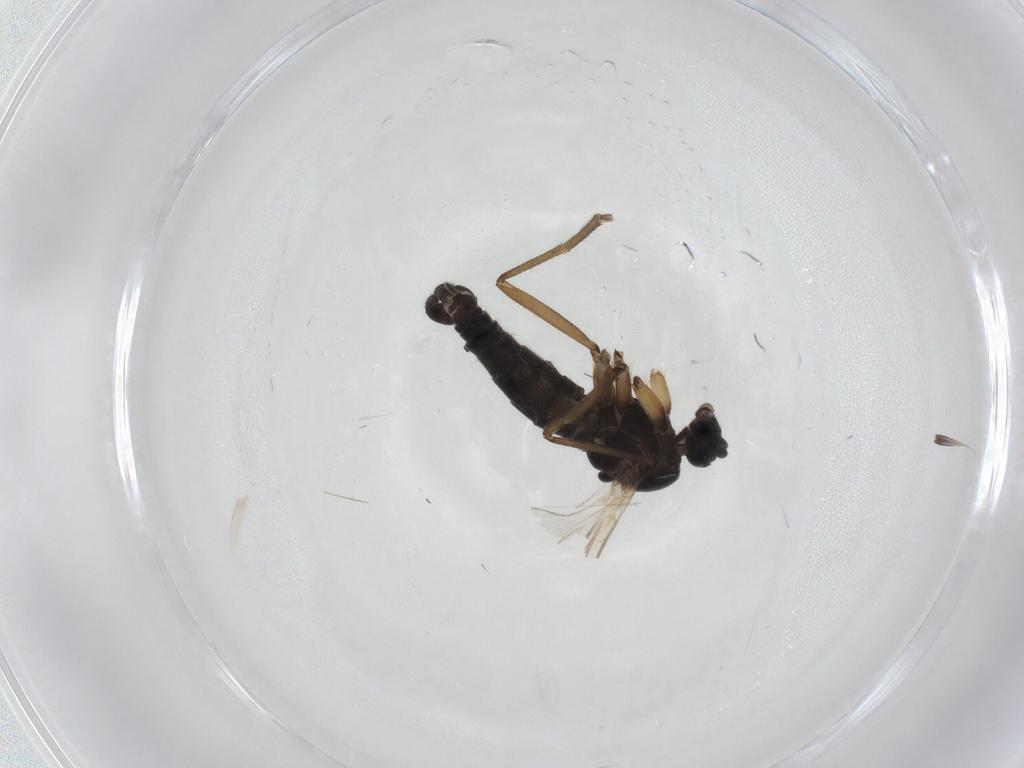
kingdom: Animalia
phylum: Arthropoda
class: Insecta
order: Diptera
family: Sciaridae
